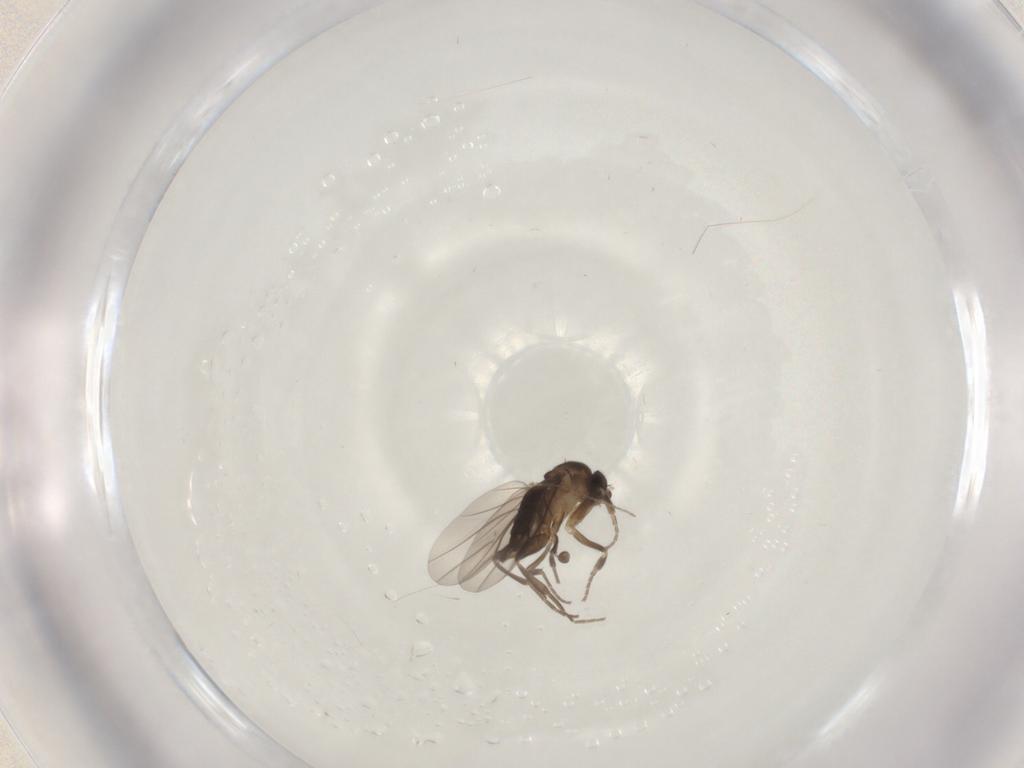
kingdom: Animalia
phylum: Arthropoda
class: Insecta
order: Diptera
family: Phoridae
